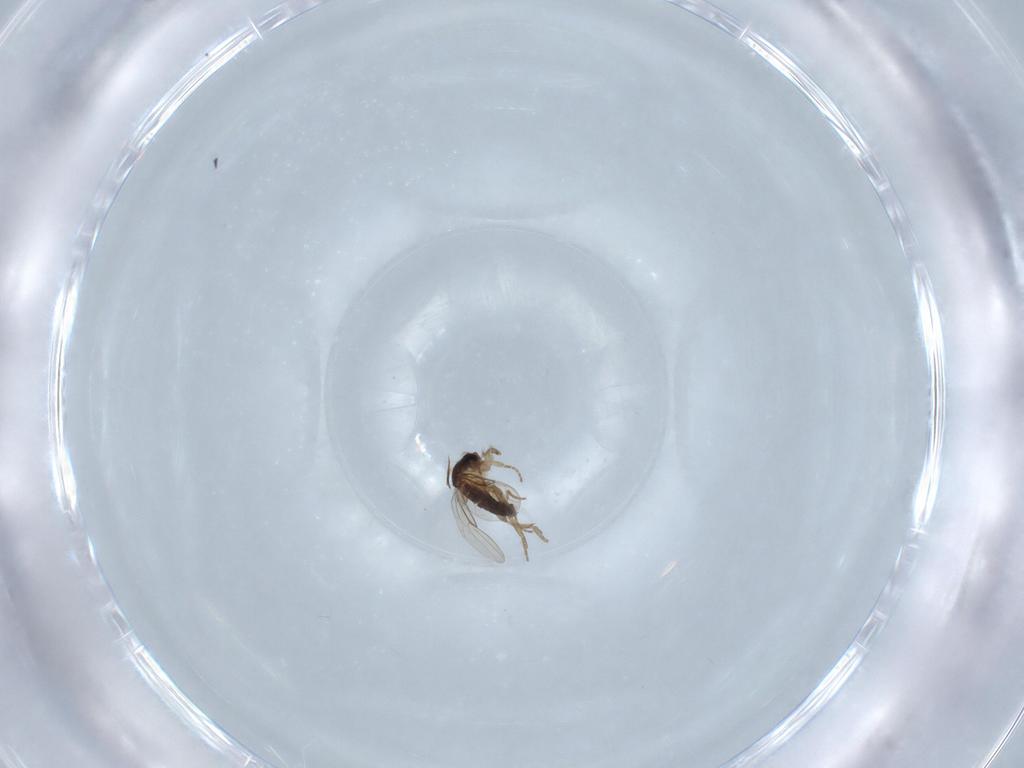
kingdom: Animalia
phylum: Arthropoda
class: Insecta
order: Diptera
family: Phoridae
